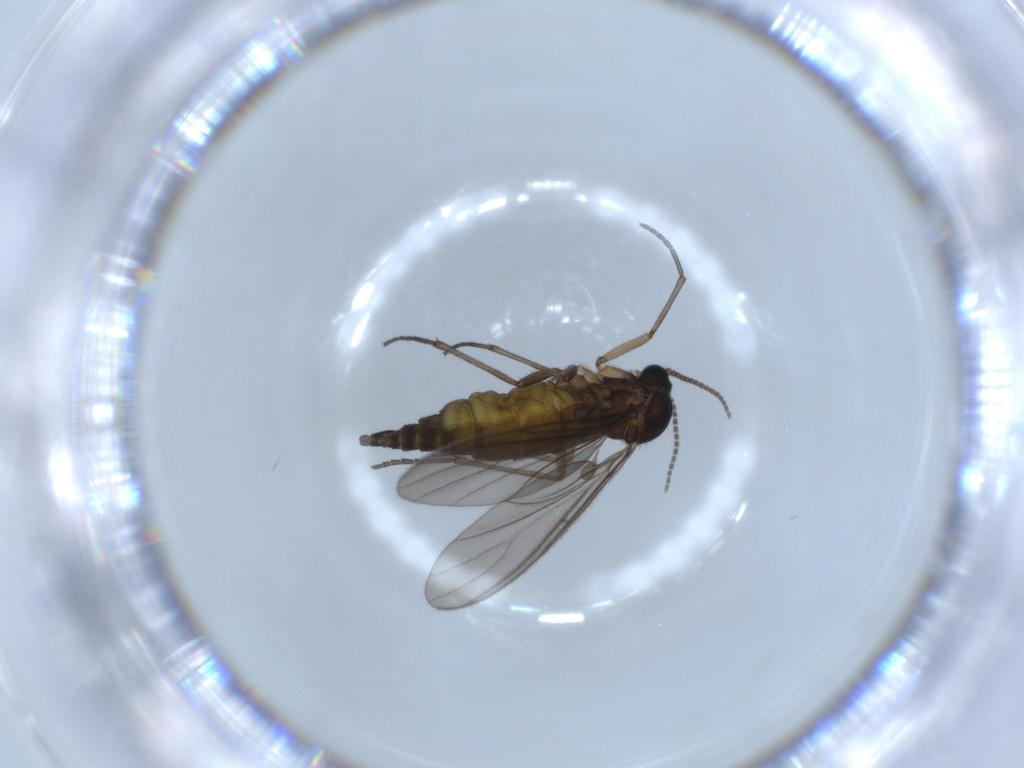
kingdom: Animalia
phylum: Arthropoda
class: Insecta
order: Diptera
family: Sciaridae
